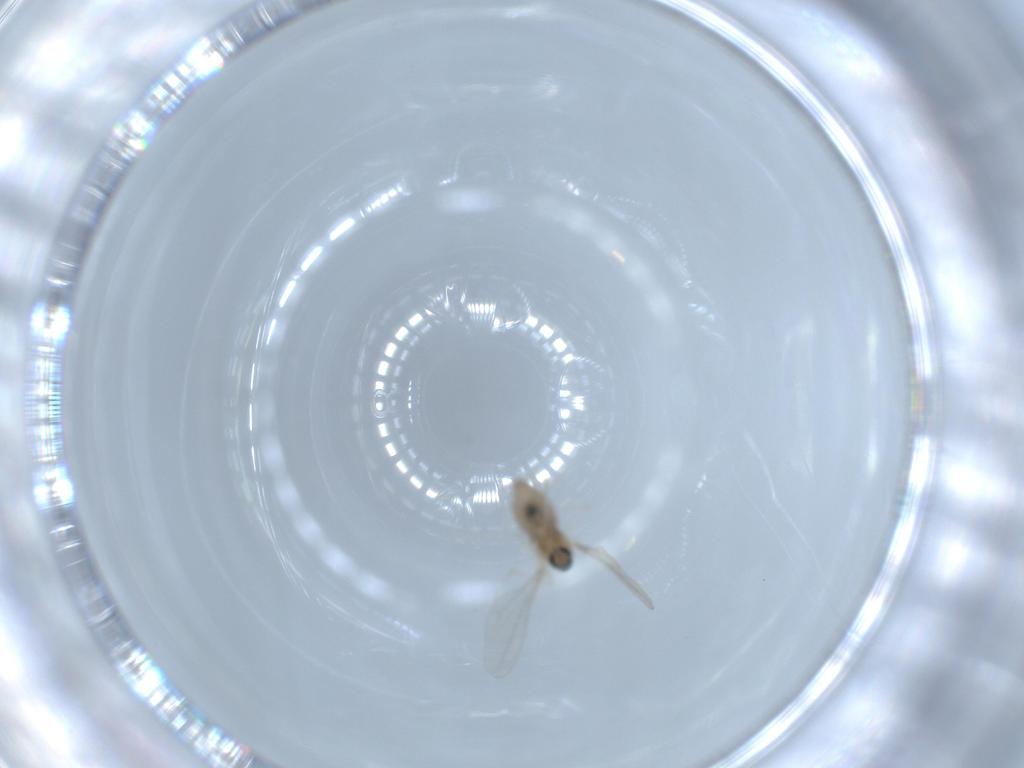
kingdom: Animalia
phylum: Arthropoda
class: Insecta
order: Diptera
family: Cecidomyiidae
